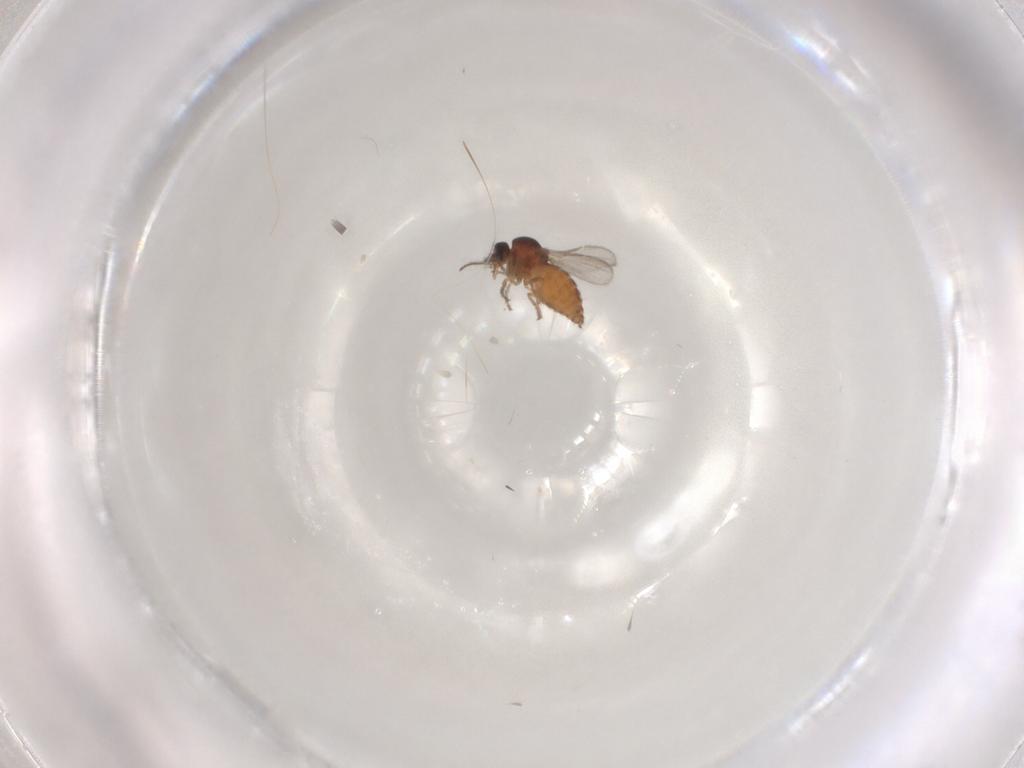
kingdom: Animalia
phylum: Arthropoda
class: Insecta
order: Diptera
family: Ceratopogonidae
